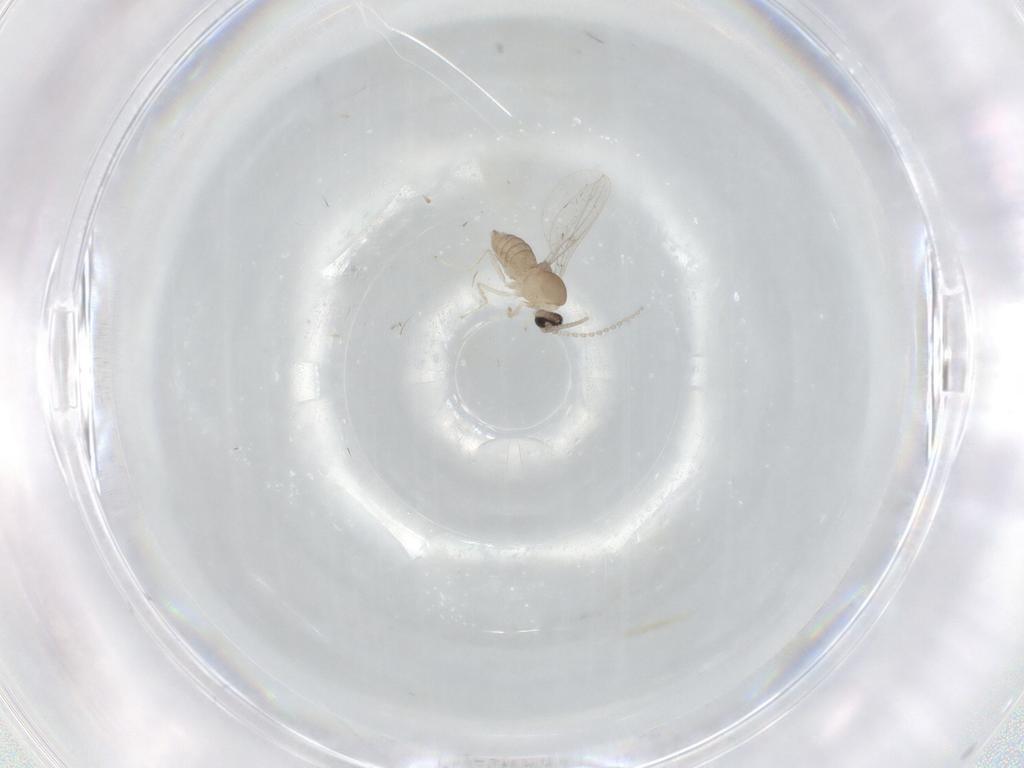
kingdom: Animalia
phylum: Arthropoda
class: Insecta
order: Diptera
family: Cecidomyiidae
